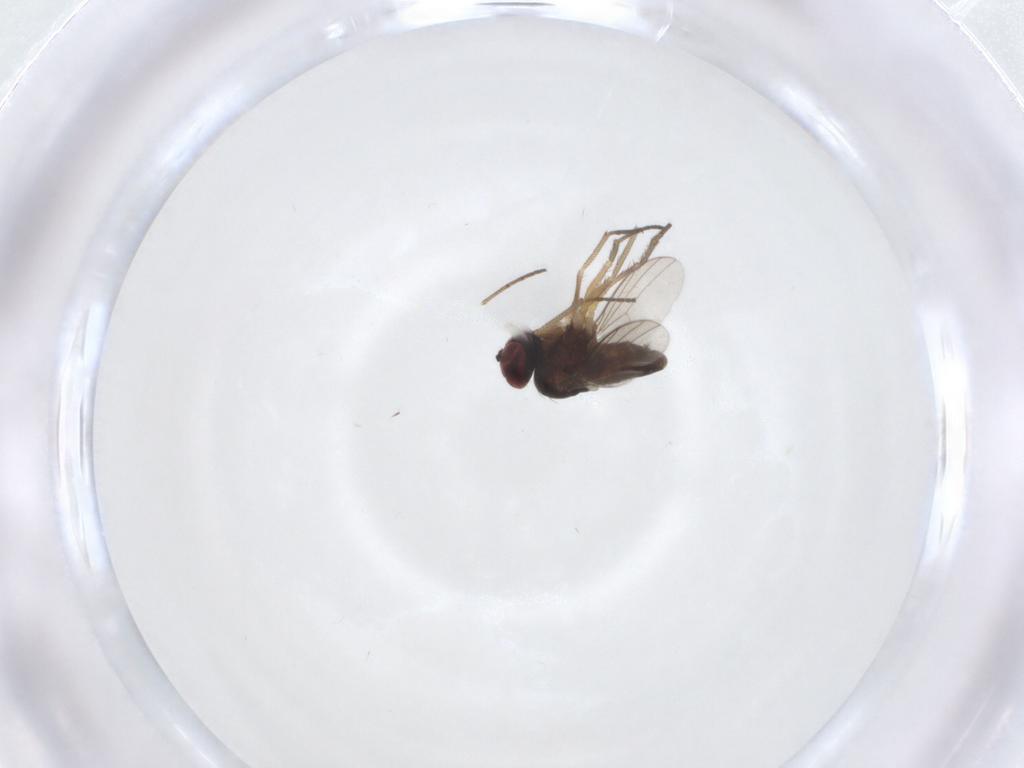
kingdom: Animalia
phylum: Arthropoda
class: Insecta
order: Diptera
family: Dolichopodidae
